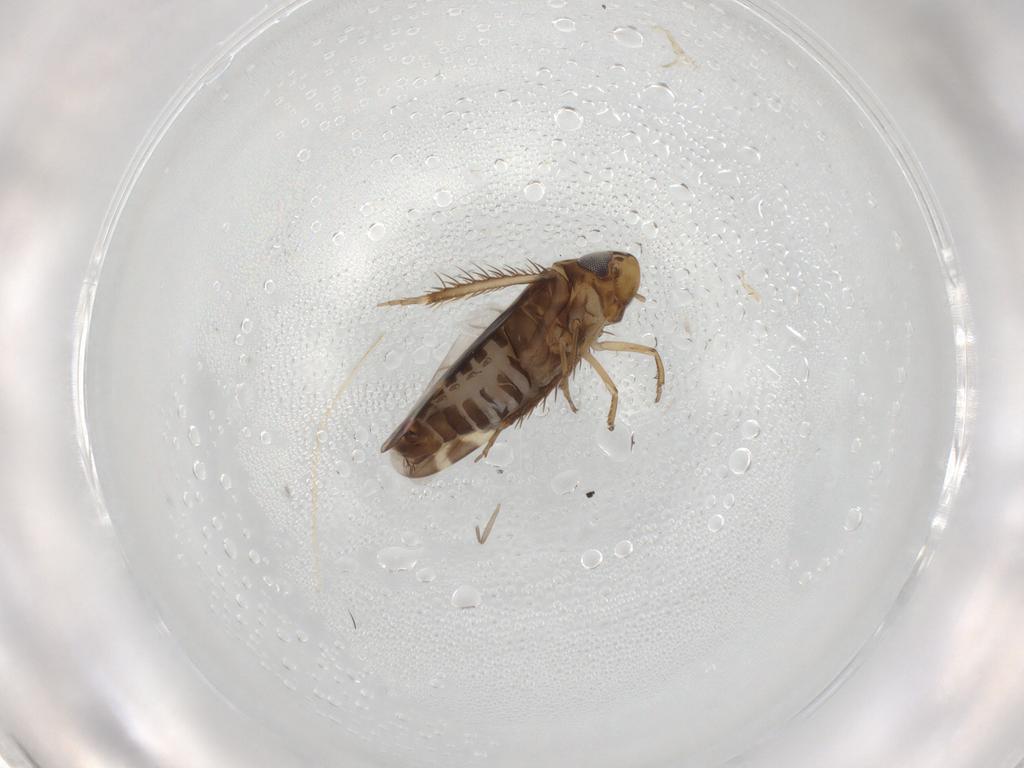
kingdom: Animalia
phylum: Arthropoda
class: Insecta
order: Hemiptera
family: Cicadellidae
